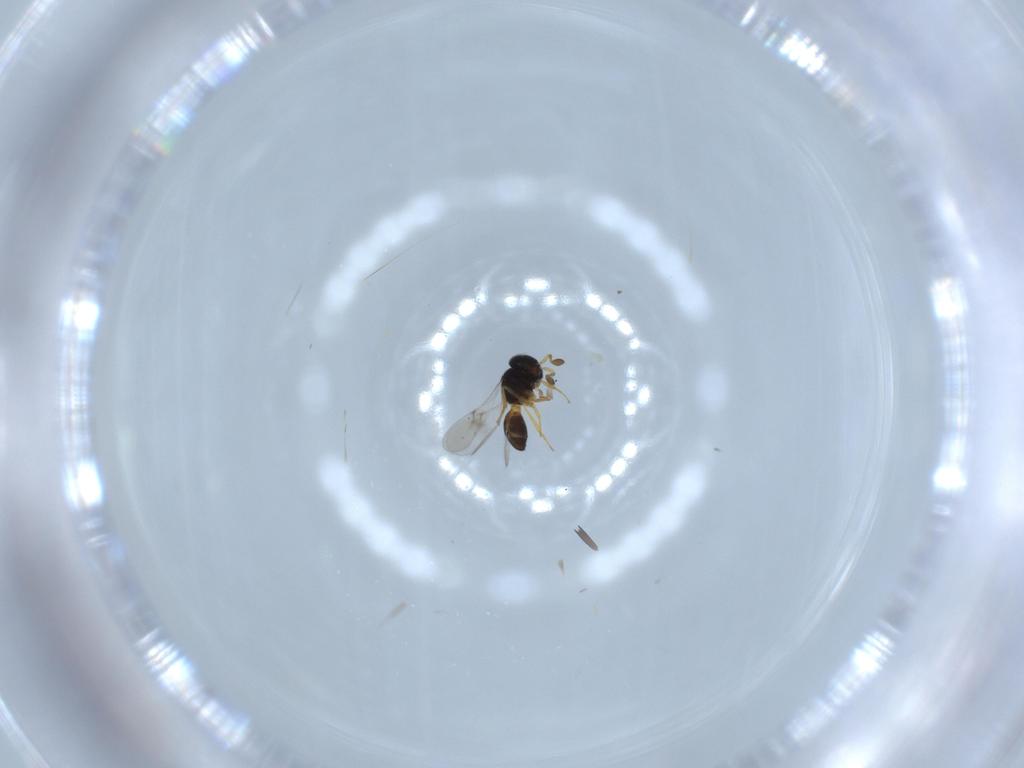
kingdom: Animalia
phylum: Arthropoda
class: Insecta
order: Hymenoptera
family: Scelionidae
